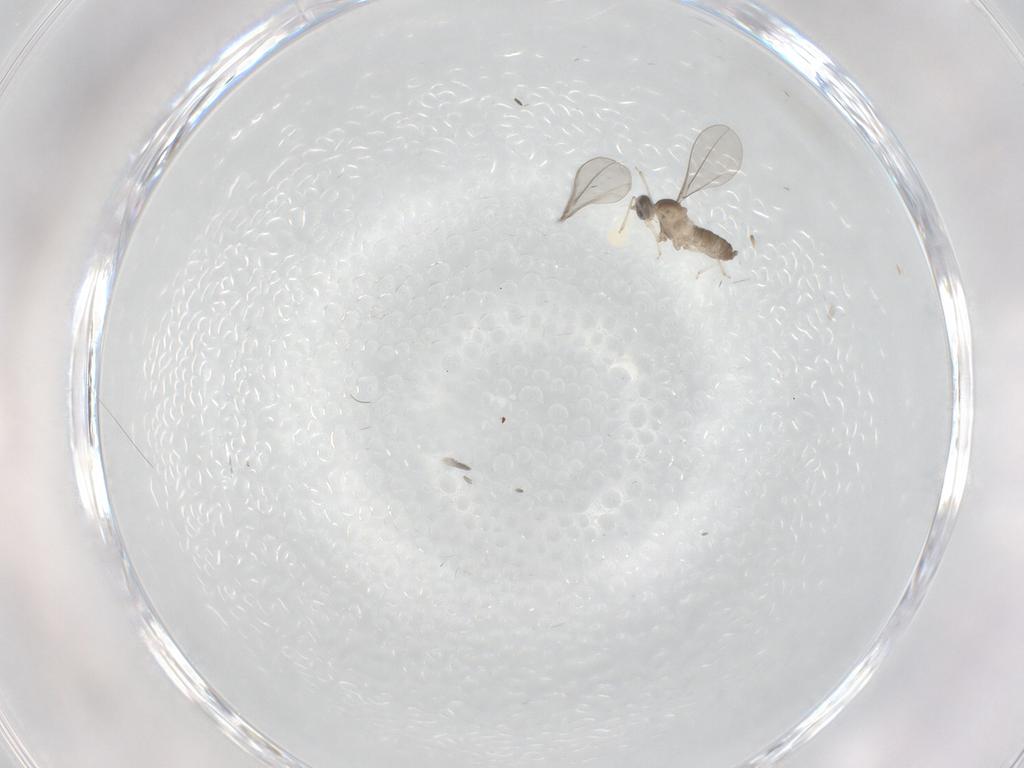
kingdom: Animalia
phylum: Arthropoda
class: Insecta
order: Diptera
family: Cecidomyiidae
